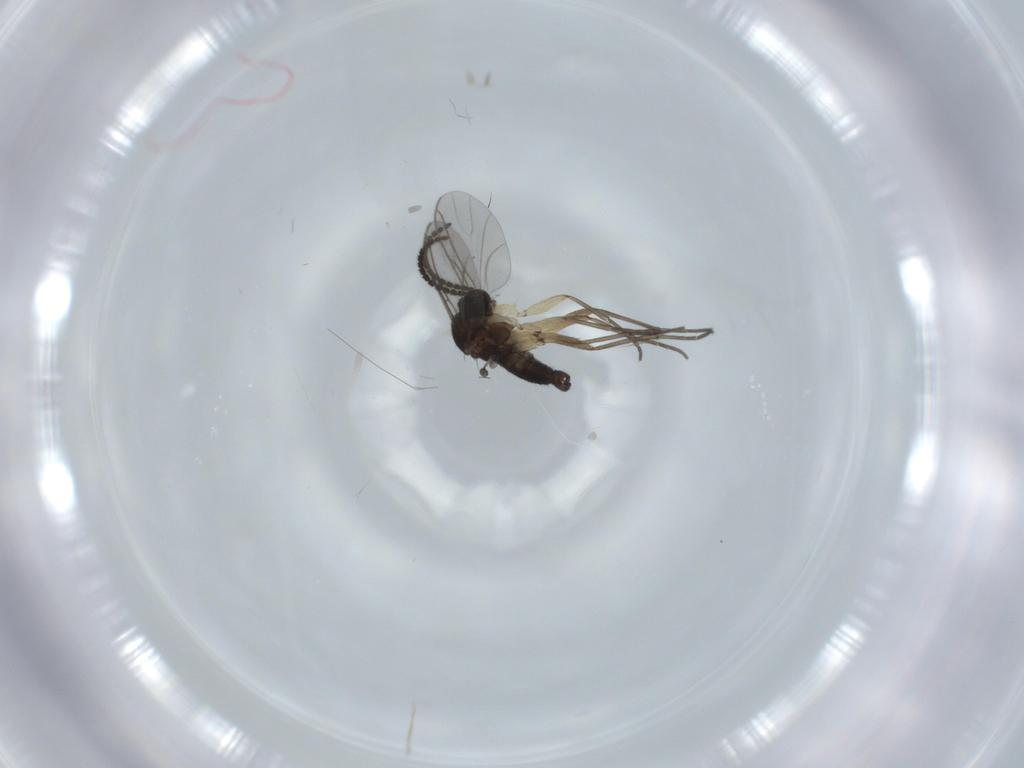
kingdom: Animalia
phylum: Arthropoda
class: Insecta
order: Diptera
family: Sciaridae
